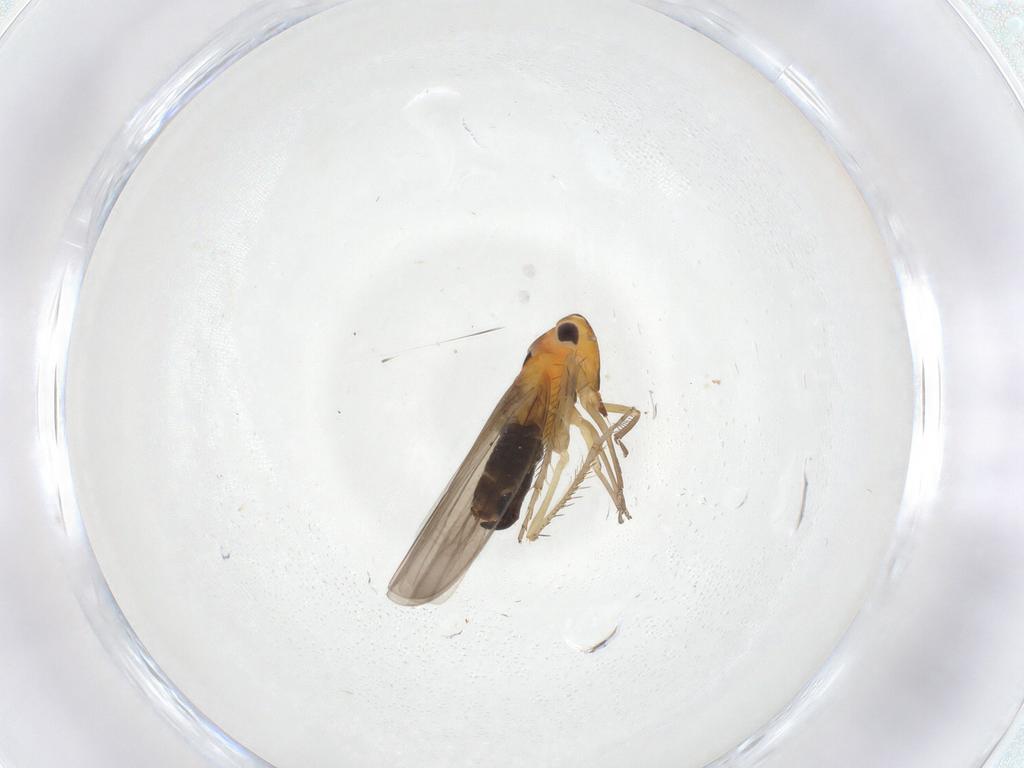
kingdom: Animalia
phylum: Arthropoda
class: Insecta
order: Hemiptera
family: Cicadellidae
